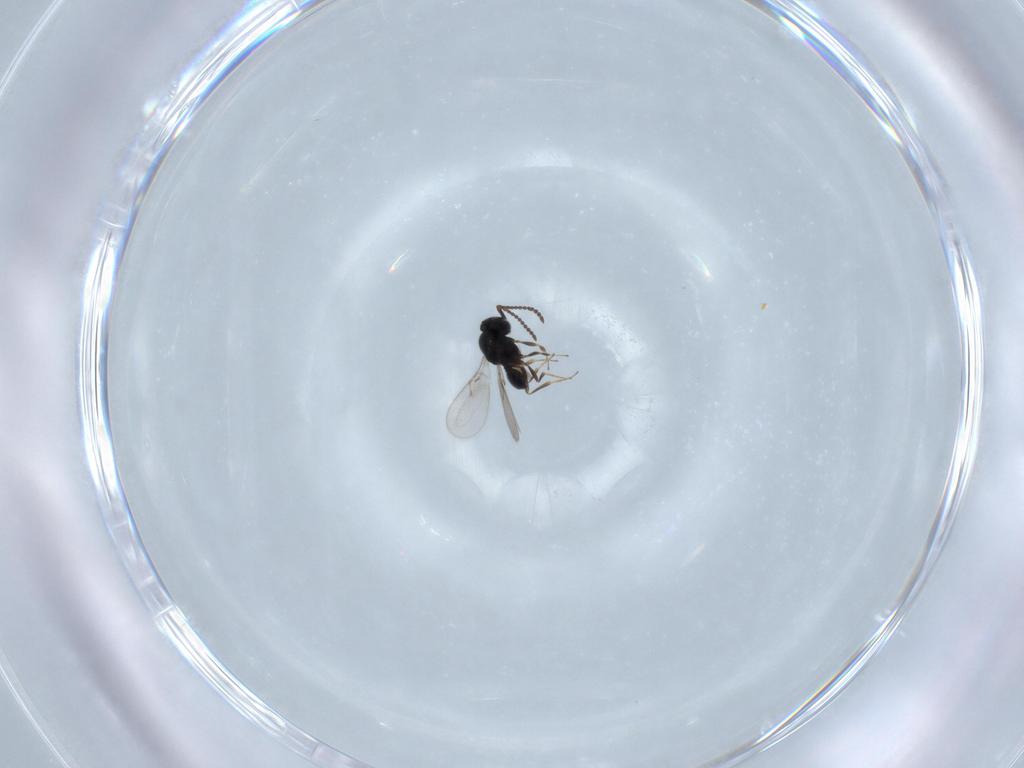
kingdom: Animalia
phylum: Arthropoda
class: Insecta
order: Hymenoptera
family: Scelionidae
